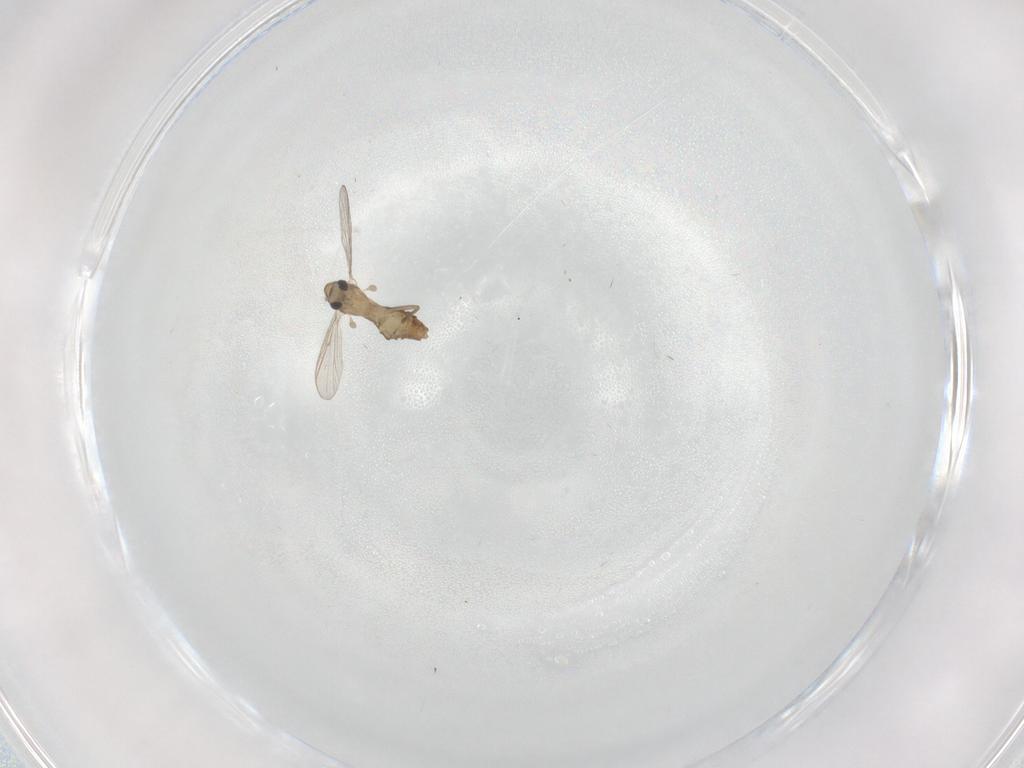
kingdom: Animalia
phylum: Arthropoda
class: Insecta
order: Diptera
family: Chironomidae
